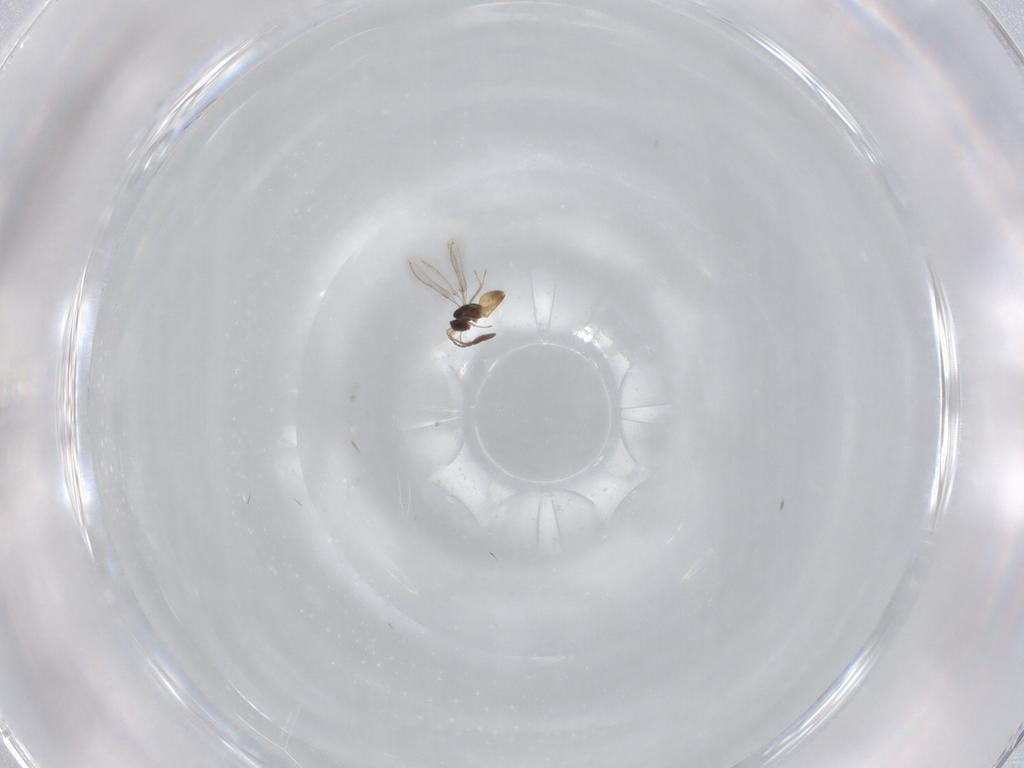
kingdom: Animalia
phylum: Arthropoda
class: Insecta
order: Hymenoptera
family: Mymaridae
